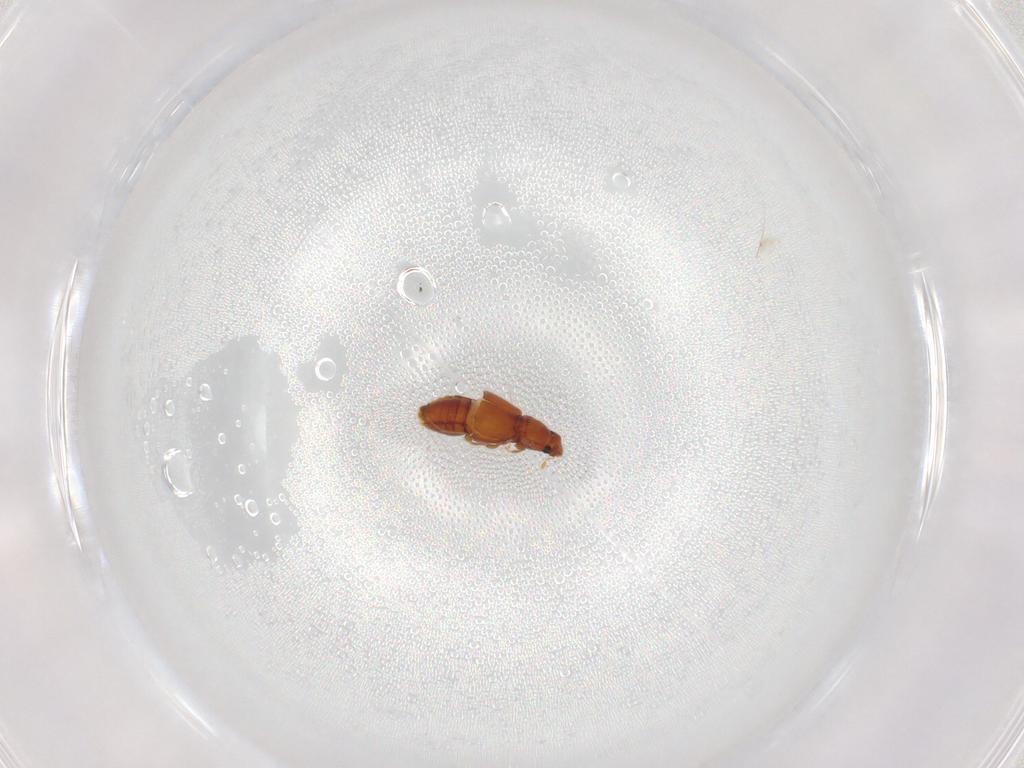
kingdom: Animalia
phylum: Arthropoda
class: Insecta
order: Coleoptera
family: Staphylinidae
